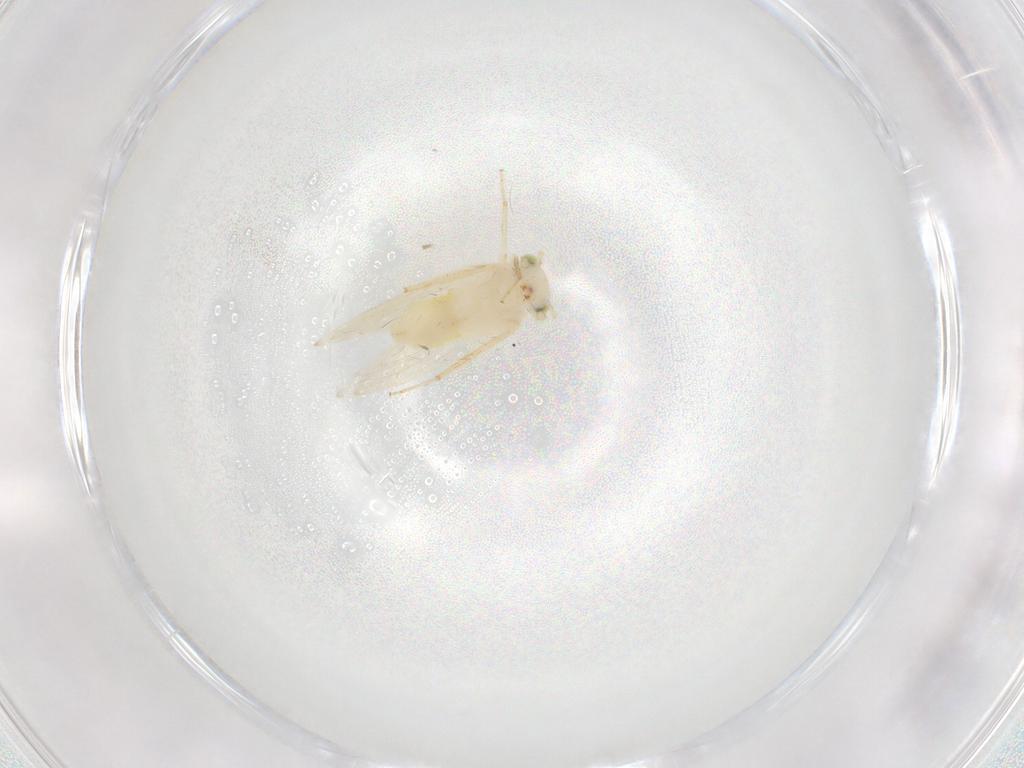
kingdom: Animalia
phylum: Arthropoda
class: Insecta
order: Psocodea
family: Lepidopsocidae
